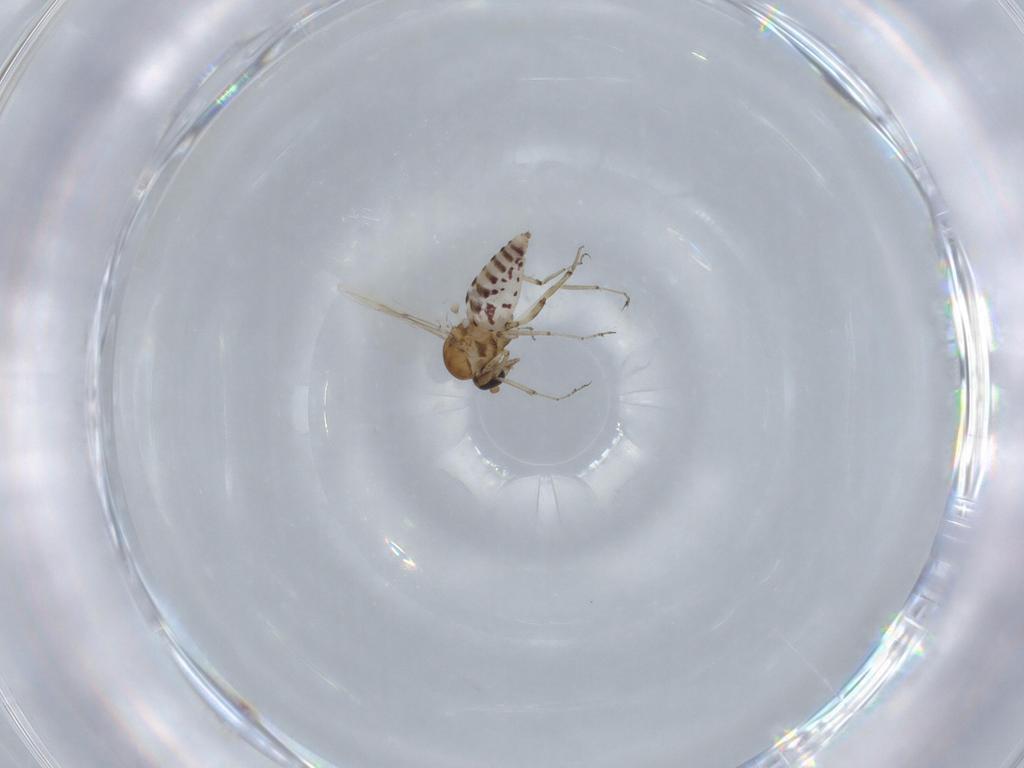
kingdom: Animalia
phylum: Arthropoda
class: Insecta
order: Diptera
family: Ceratopogonidae
